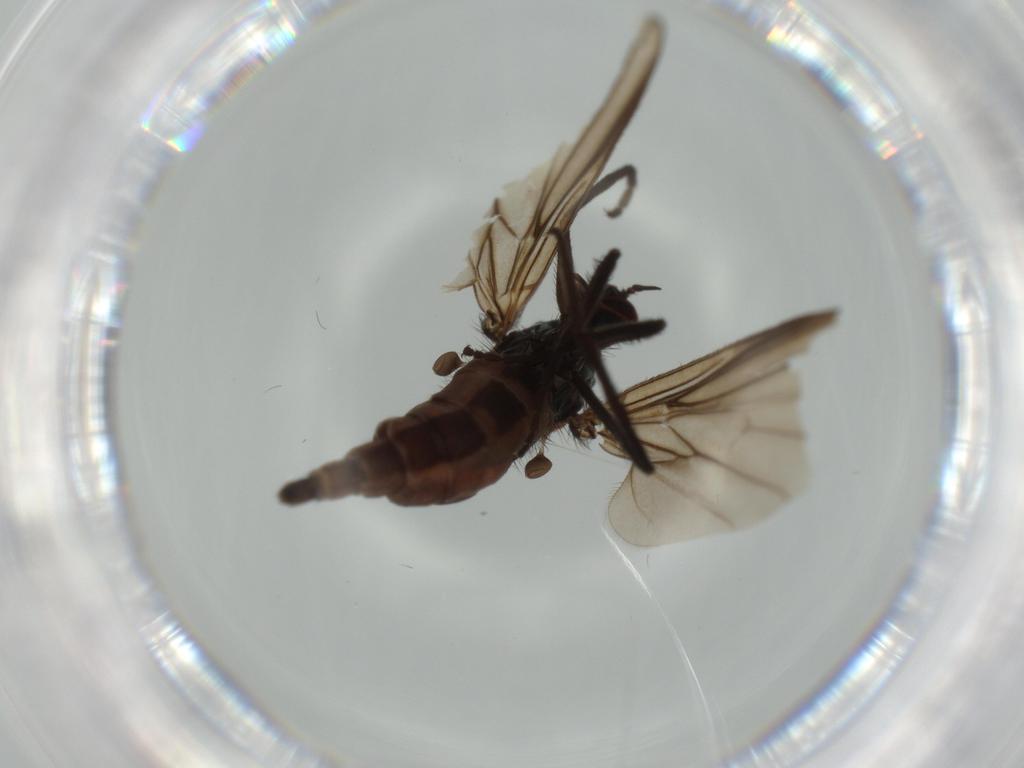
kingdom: Animalia
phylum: Arthropoda
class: Insecta
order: Diptera
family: Empididae
